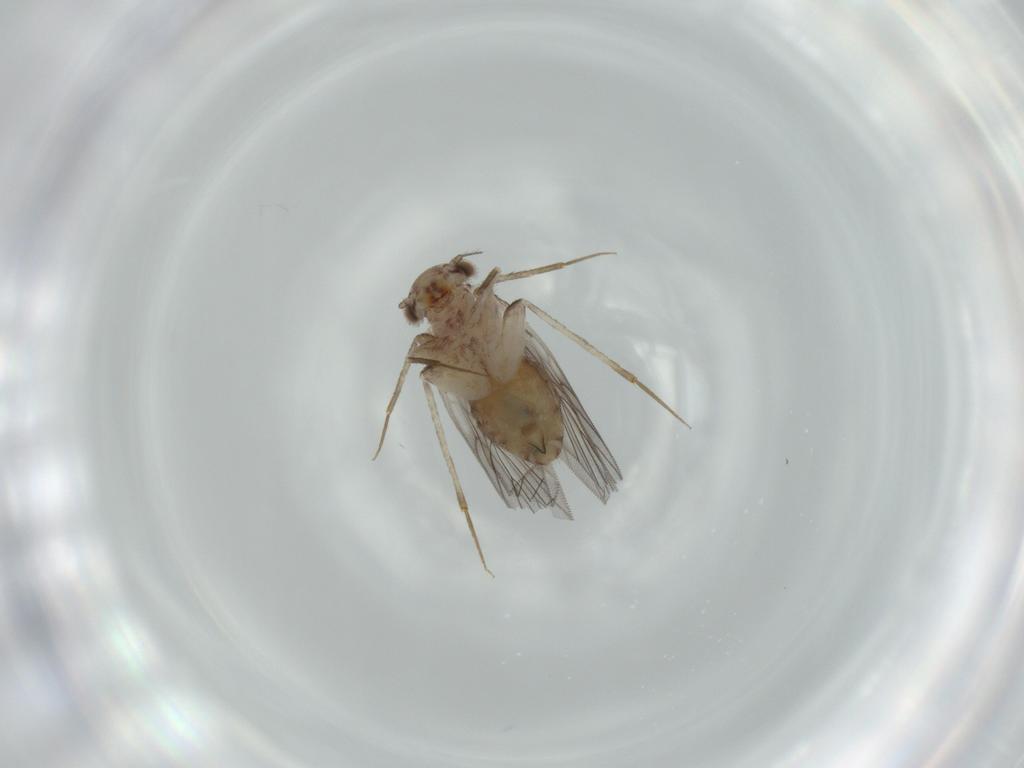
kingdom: Animalia
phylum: Arthropoda
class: Insecta
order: Psocodea
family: Lepidopsocidae
